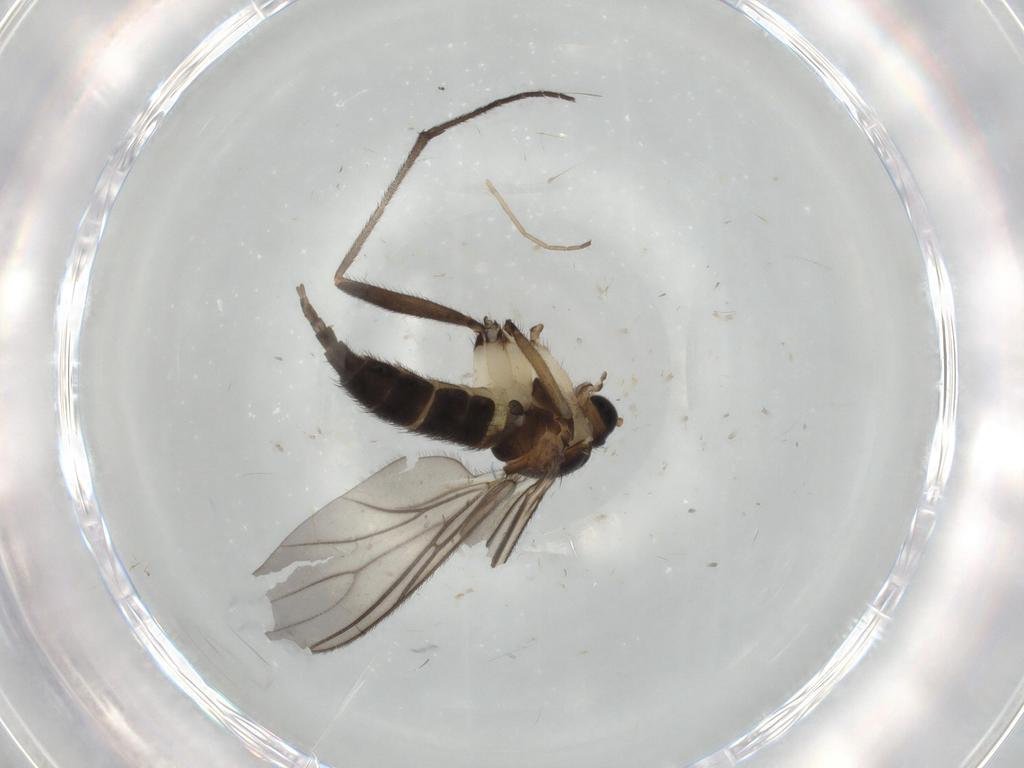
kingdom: Animalia
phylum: Arthropoda
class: Insecta
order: Diptera
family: Sciaridae
